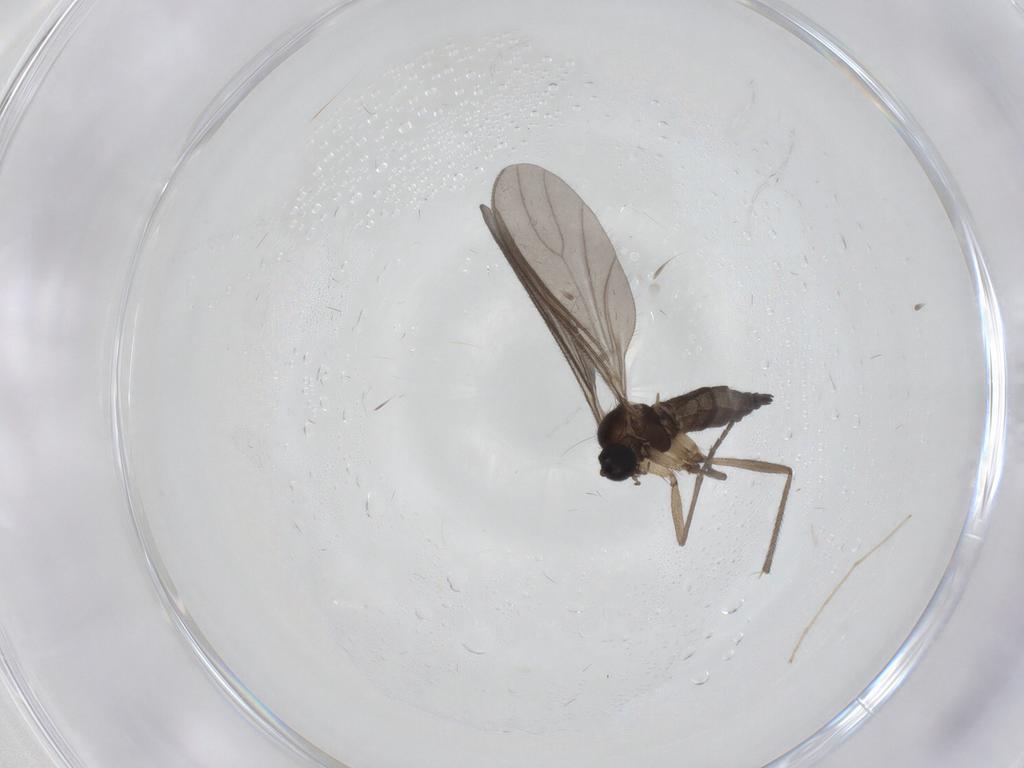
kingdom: Animalia
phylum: Arthropoda
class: Insecta
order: Diptera
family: Sciaridae
